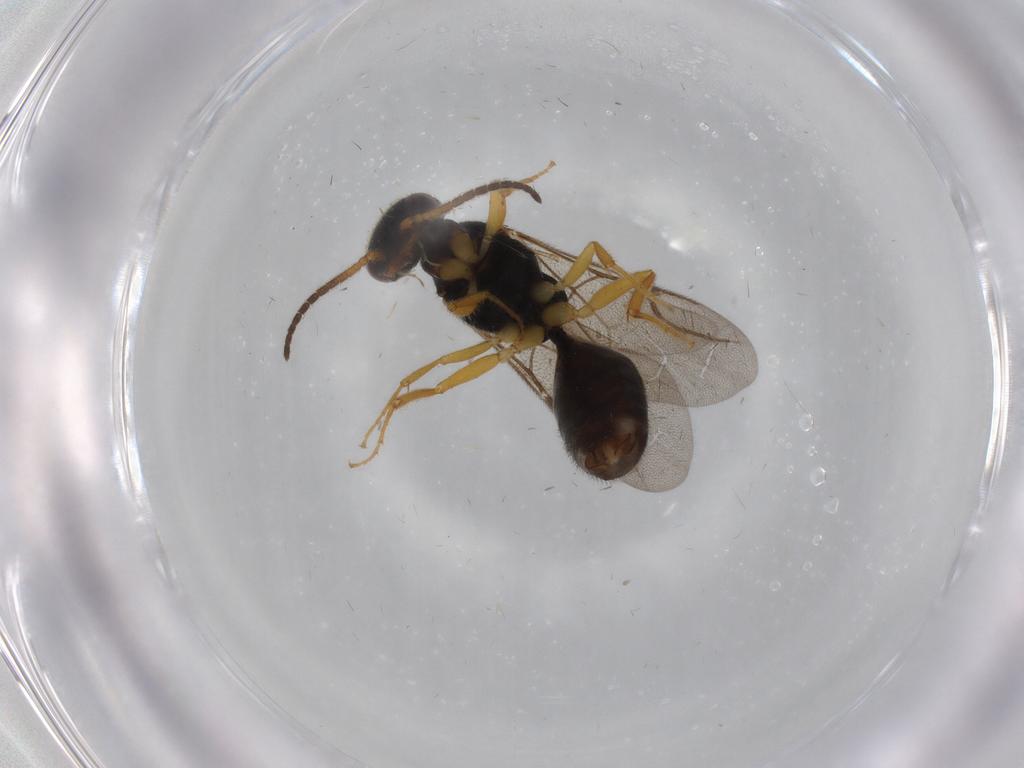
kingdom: Animalia
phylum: Arthropoda
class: Insecta
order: Hymenoptera
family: Bethylidae
